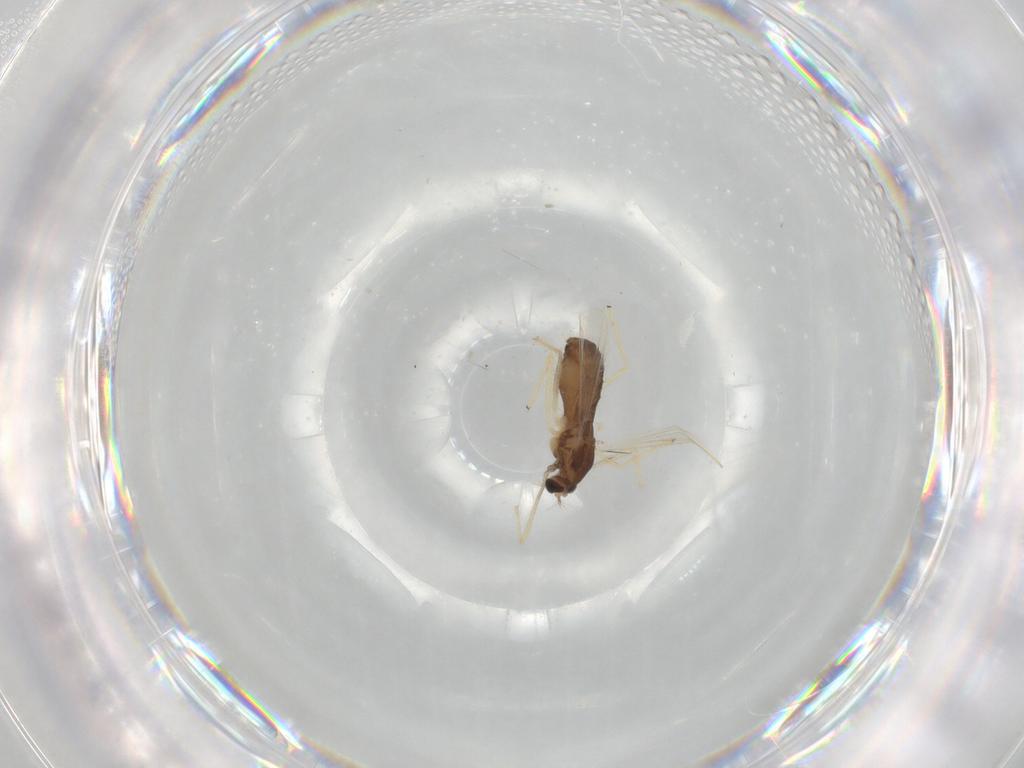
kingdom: Animalia
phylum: Arthropoda
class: Insecta
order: Diptera
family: Chironomidae
